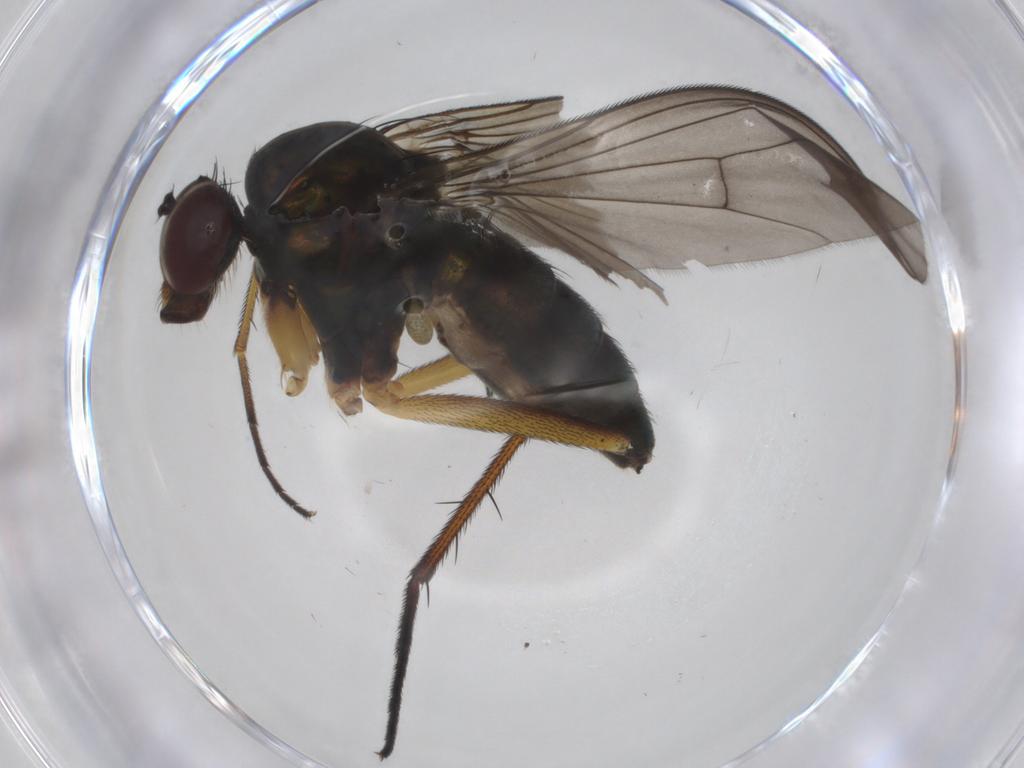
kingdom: Animalia
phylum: Arthropoda
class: Insecta
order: Diptera
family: Dolichopodidae
